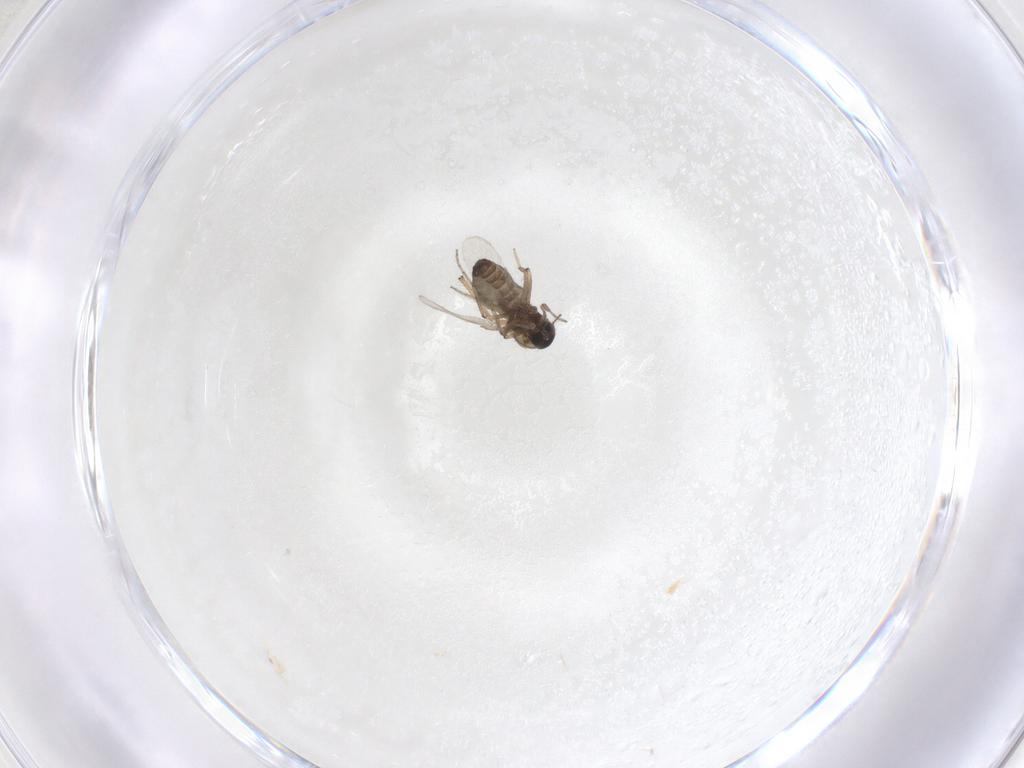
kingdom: Animalia
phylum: Arthropoda
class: Insecta
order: Diptera
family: Ceratopogonidae
